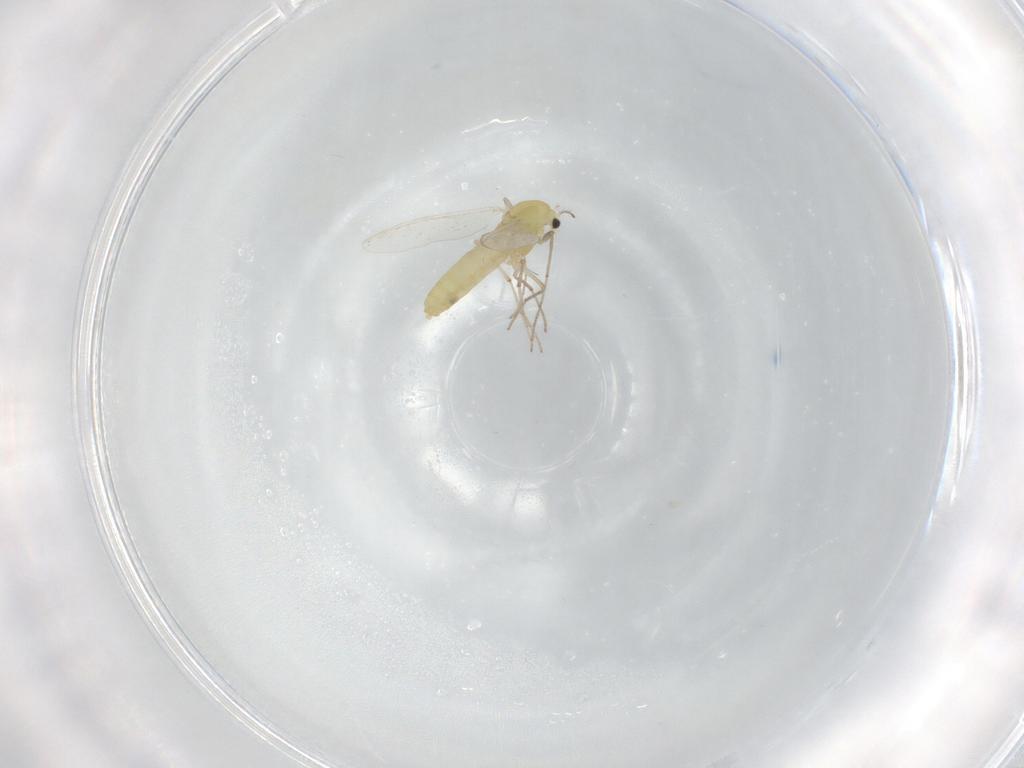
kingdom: Animalia
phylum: Arthropoda
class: Insecta
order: Diptera
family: Chironomidae
